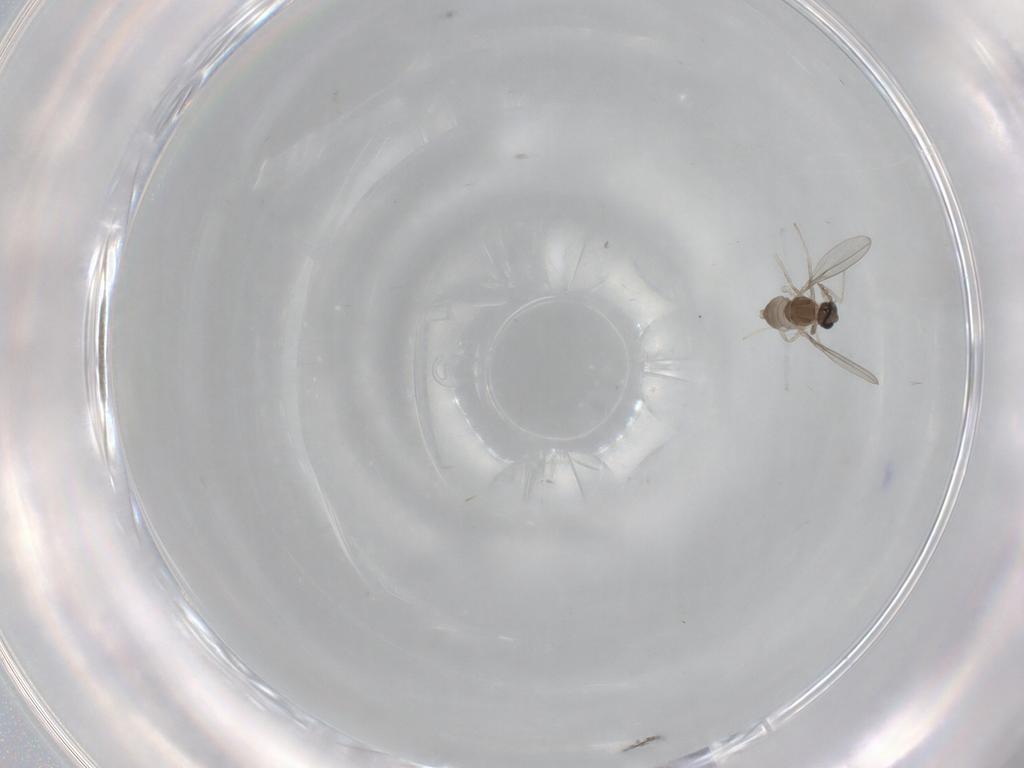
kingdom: Animalia
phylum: Arthropoda
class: Insecta
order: Diptera
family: Cecidomyiidae
